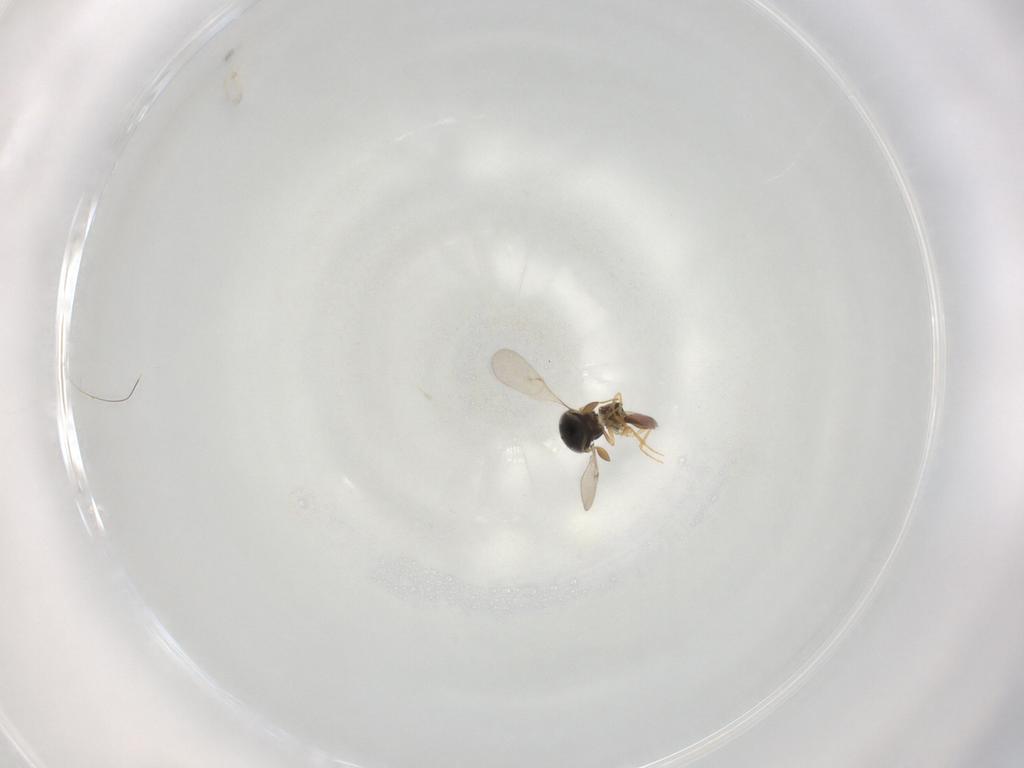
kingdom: Animalia
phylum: Arthropoda
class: Insecta
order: Hymenoptera
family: Scelionidae
